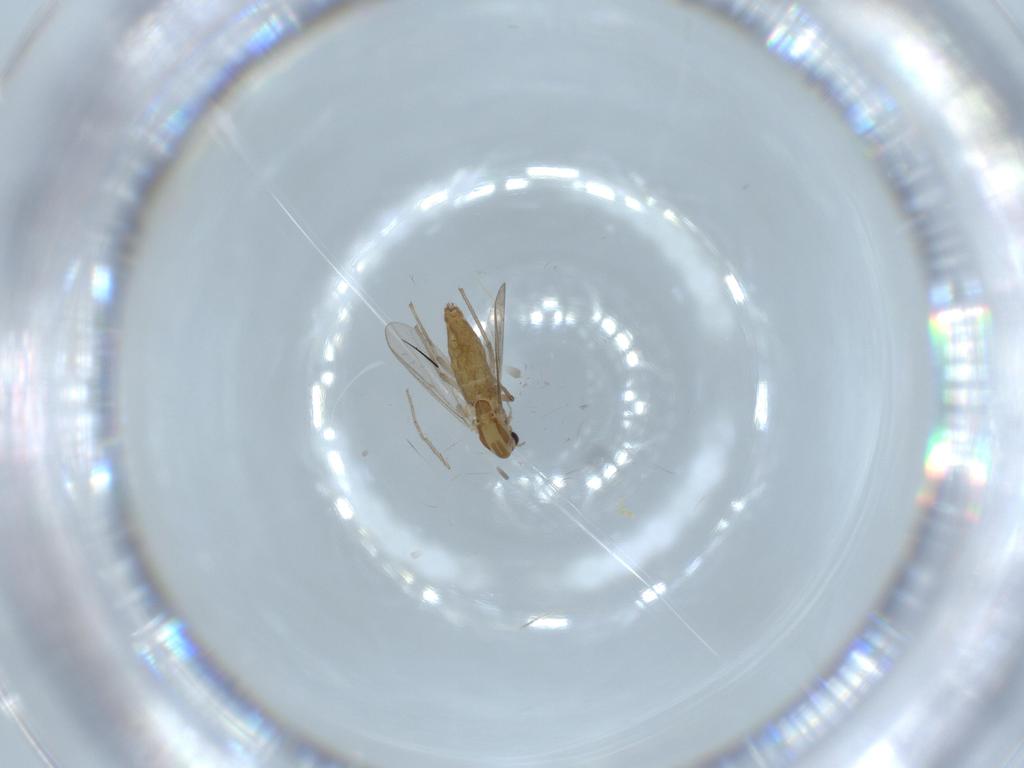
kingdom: Animalia
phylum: Arthropoda
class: Insecta
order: Diptera
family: Chironomidae
